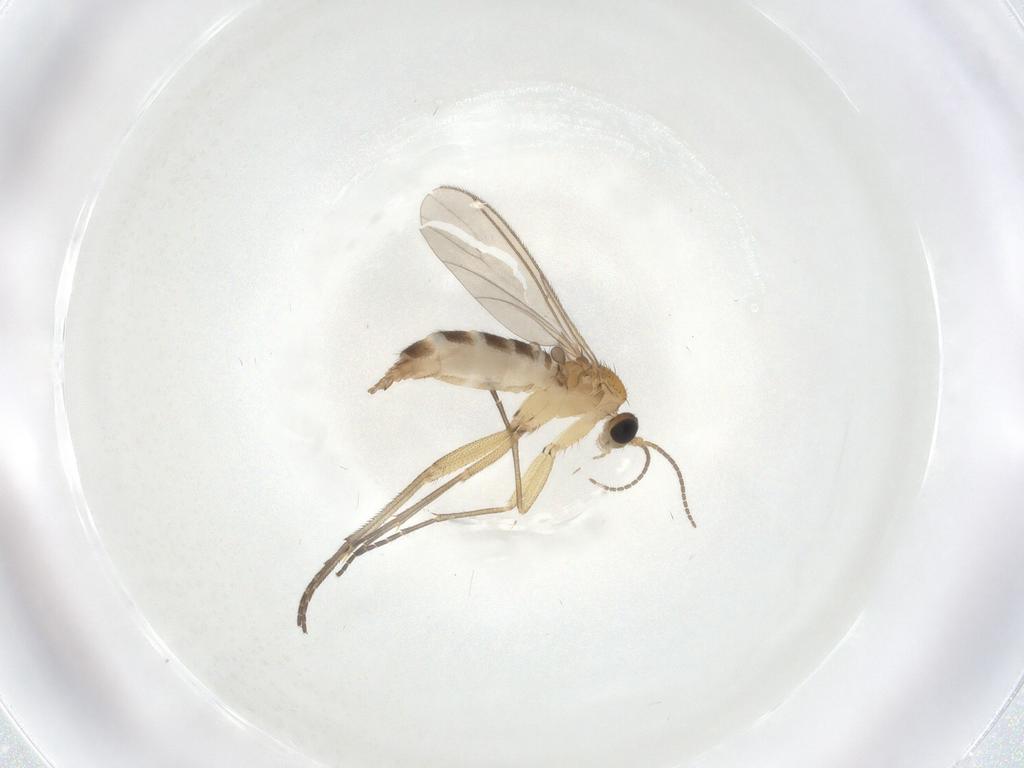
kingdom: Animalia
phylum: Arthropoda
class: Insecta
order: Diptera
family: Sciaridae
